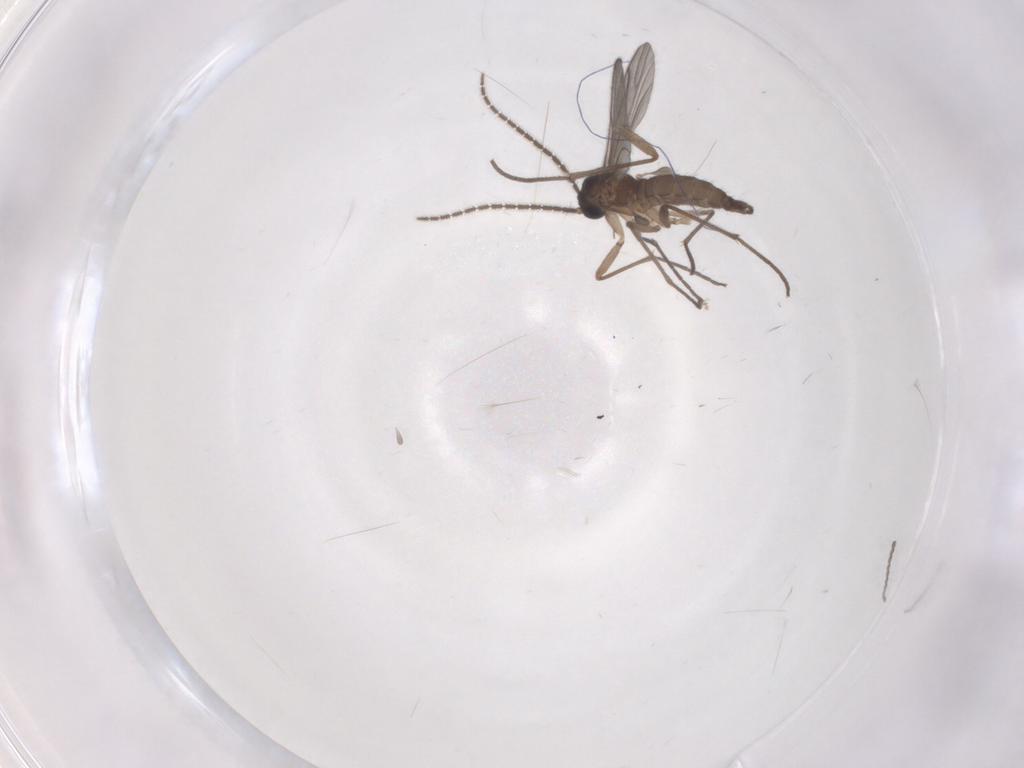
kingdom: Animalia
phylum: Arthropoda
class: Insecta
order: Diptera
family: Sciaridae
